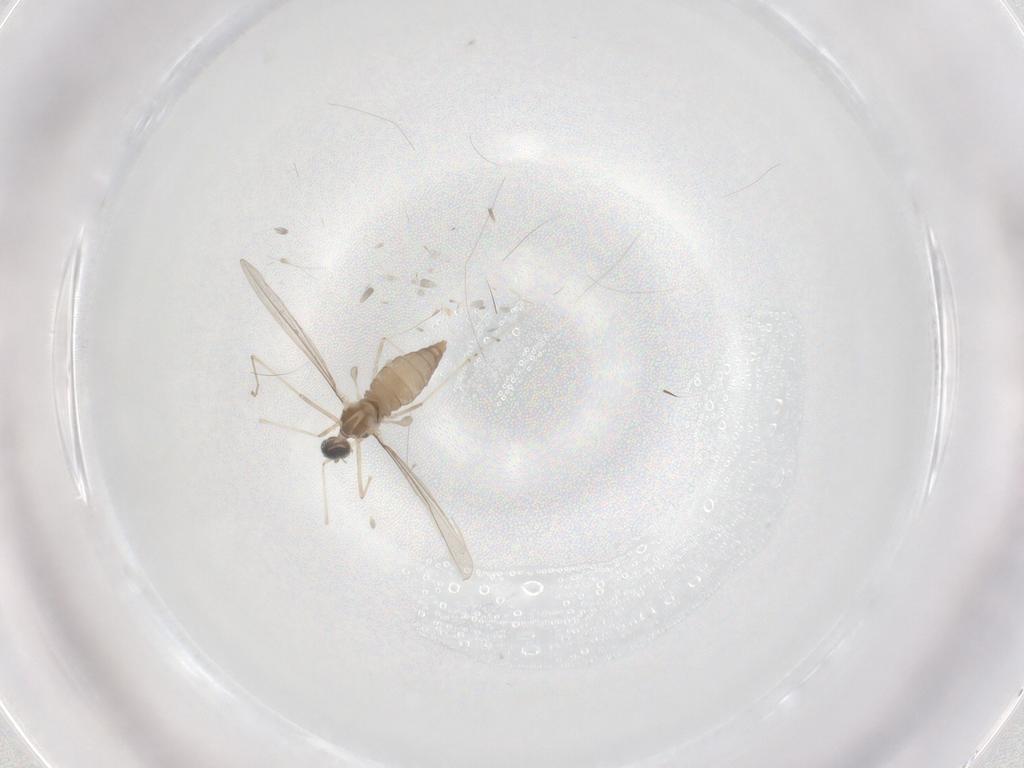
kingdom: Animalia
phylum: Arthropoda
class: Insecta
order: Diptera
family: Cecidomyiidae
